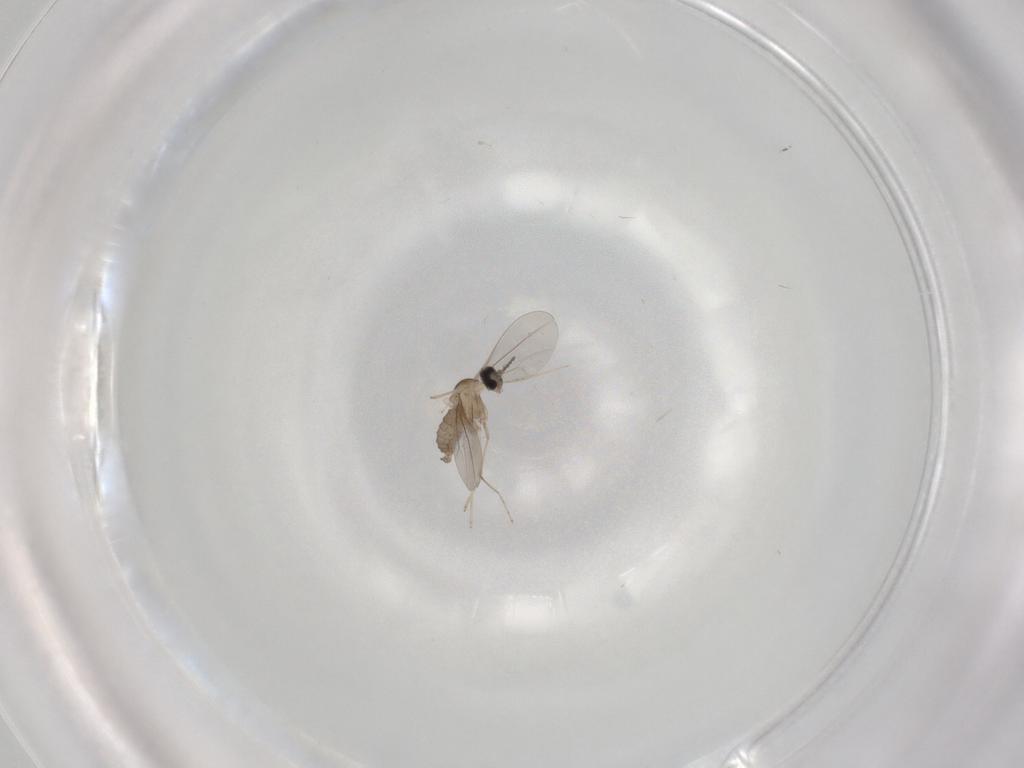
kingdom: Animalia
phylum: Arthropoda
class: Insecta
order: Diptera
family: Cecidomyiidae
